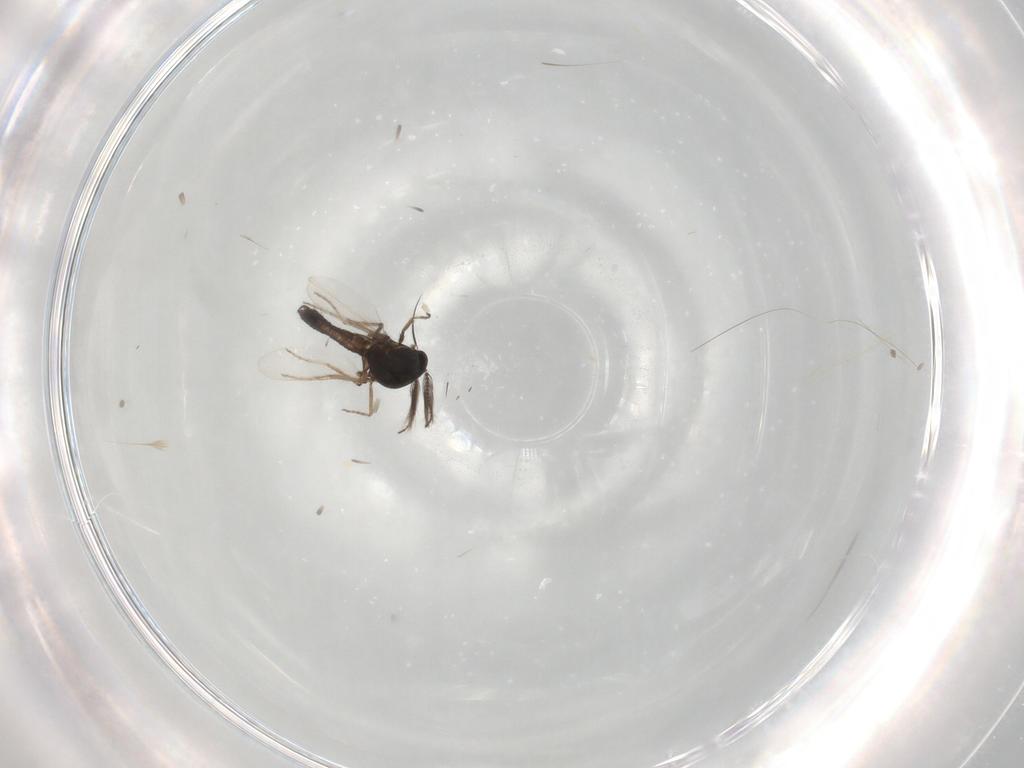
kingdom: Animalia
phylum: Arthropoda
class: Insecta
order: Diptera
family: Ceratopogonidae
